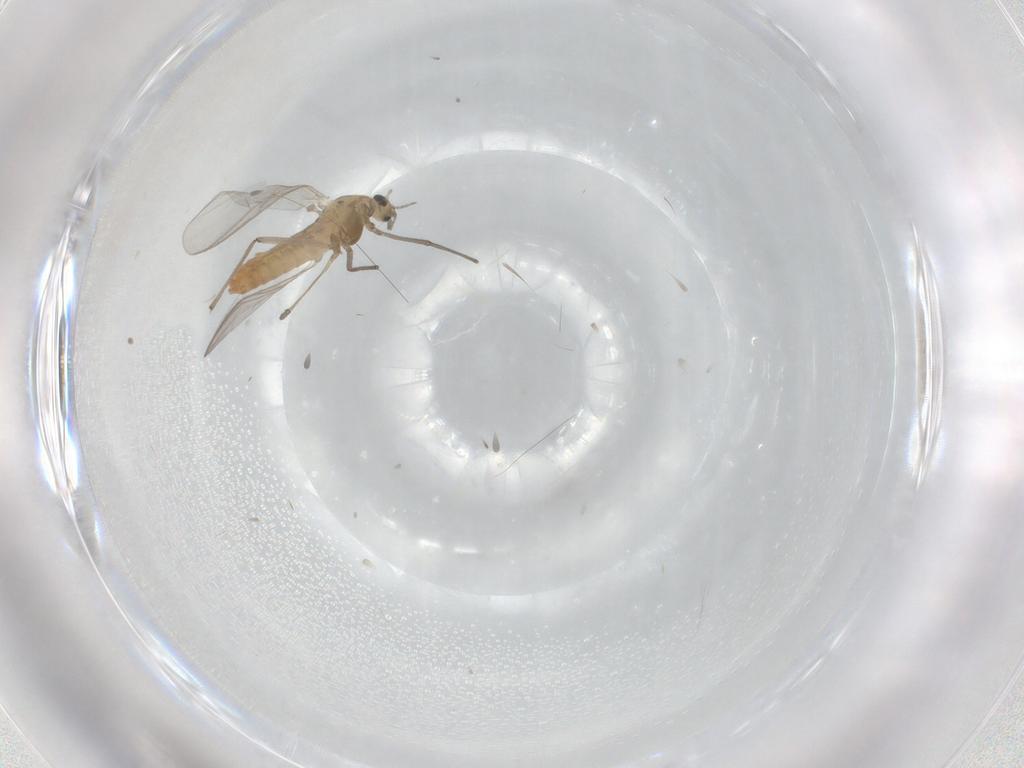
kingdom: Animalia
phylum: Arthropoda
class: Insecta
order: Diptera
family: Chironomidae
